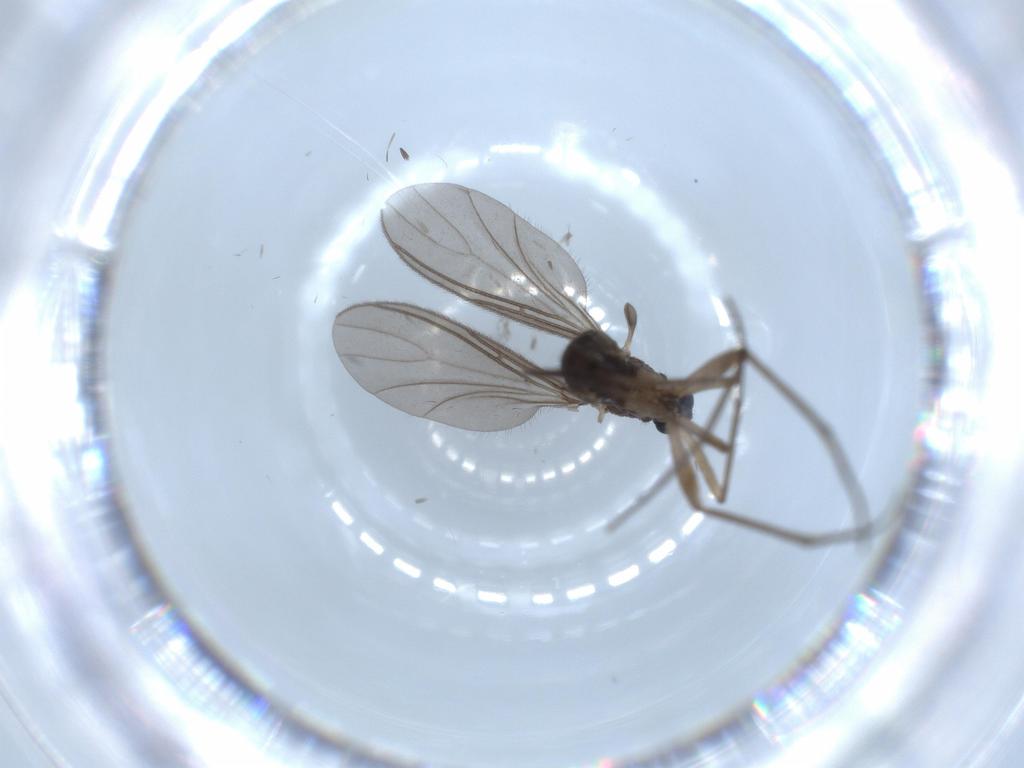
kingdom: Animalia
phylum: Arthropoda
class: Insecta
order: Diptera
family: Sciaridae
